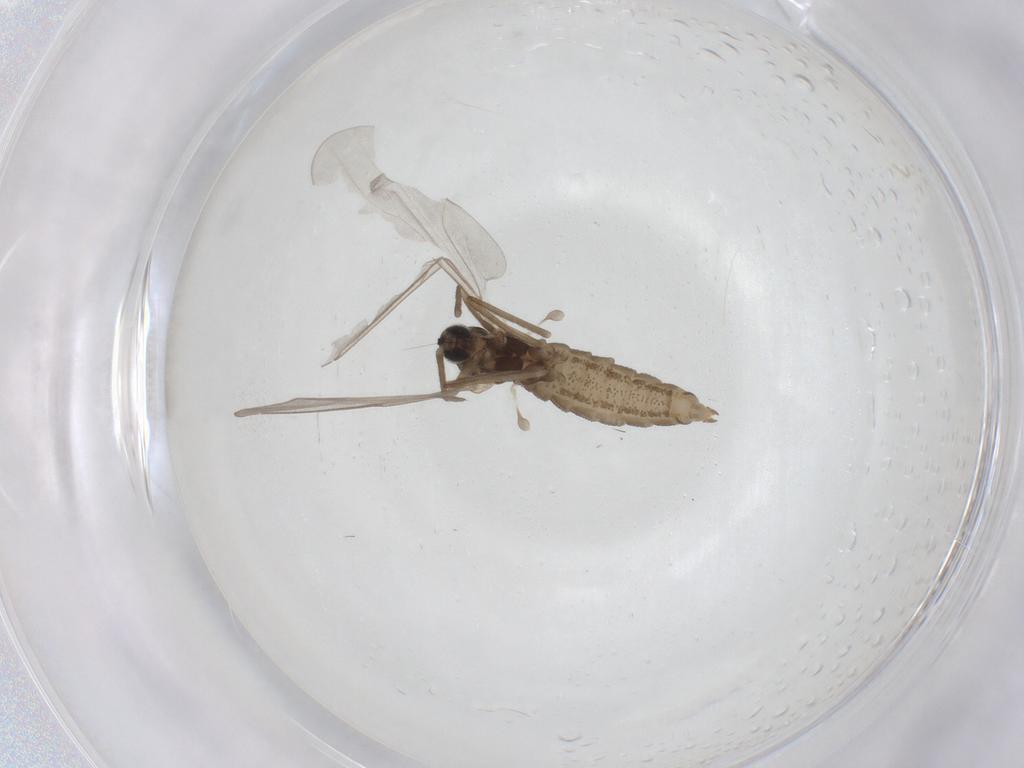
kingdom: Animalia
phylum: Arthropoda
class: Insecta
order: Diptera
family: Cecidomyiidae
